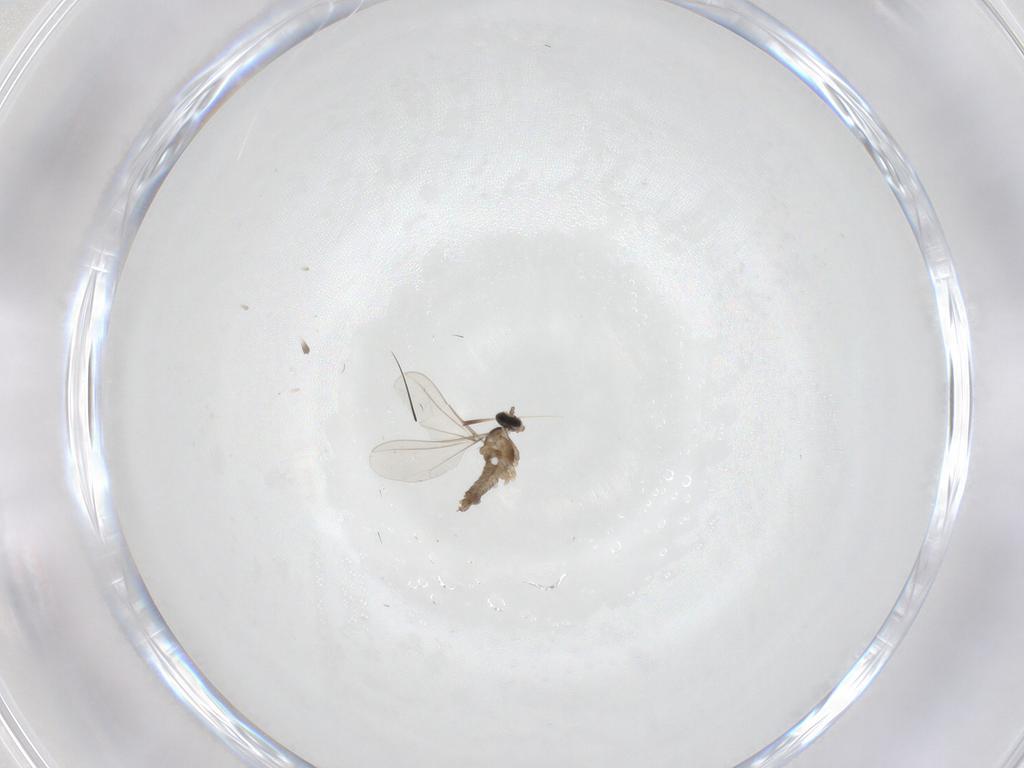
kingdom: Animalia
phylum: Arthropoda
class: Insecta
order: Diptera
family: Cecidomyiidae
